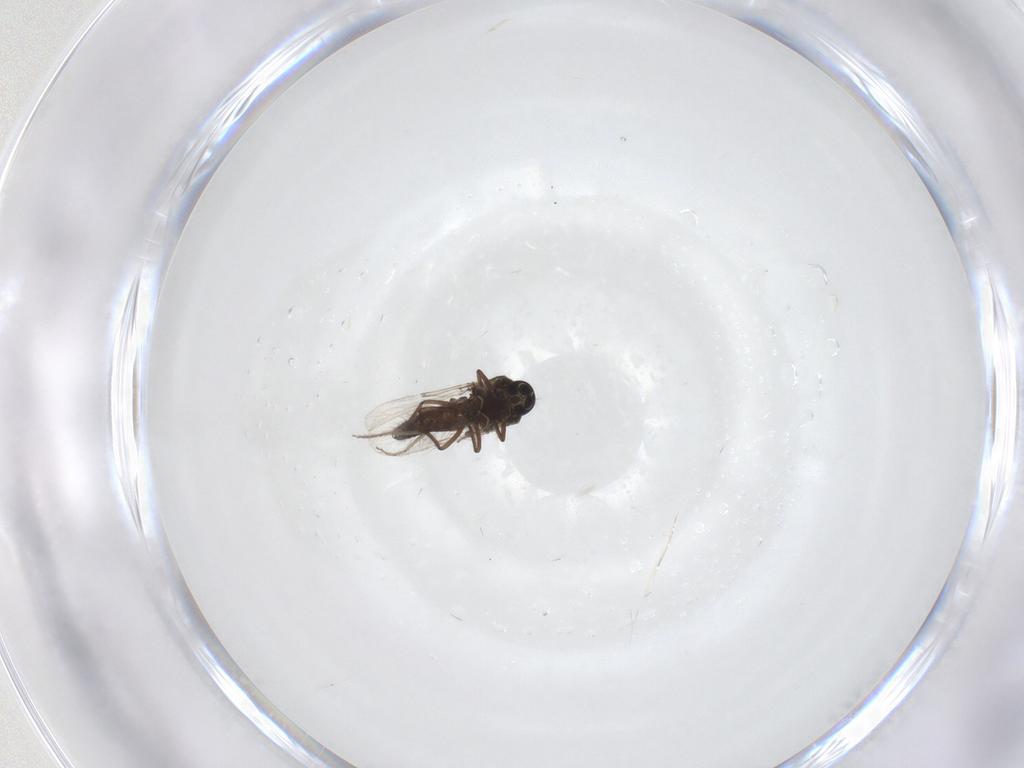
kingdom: Animalia
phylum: Arthropoda
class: Insecta
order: Diptera
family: Ceratopogonidae
